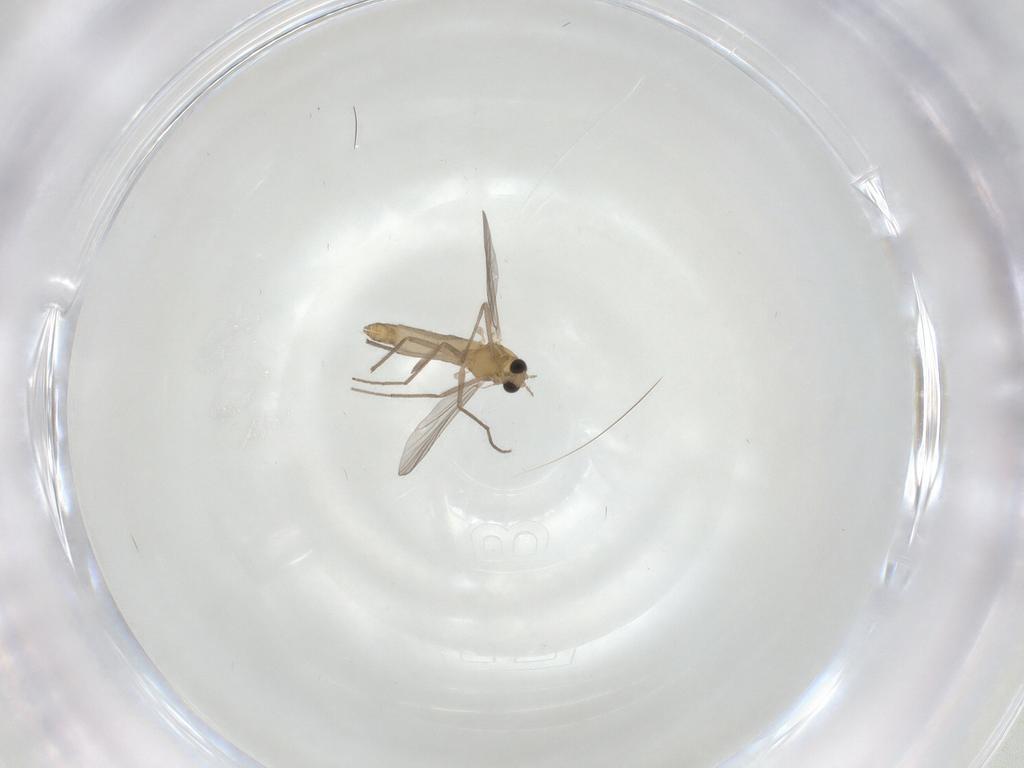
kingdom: Animalia
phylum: Arthropoda
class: Insecta
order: Diptera
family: Chironomidae
